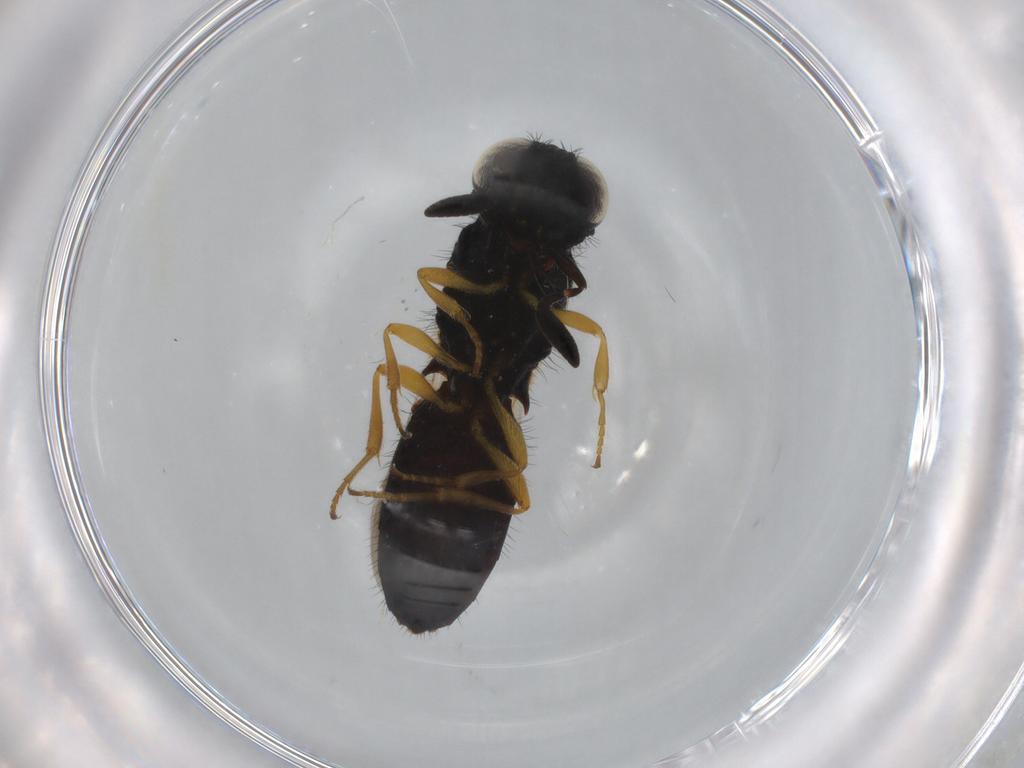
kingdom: Animalia
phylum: Arthropoda
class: Insecta
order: Hymenoptera
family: Scelionidae
